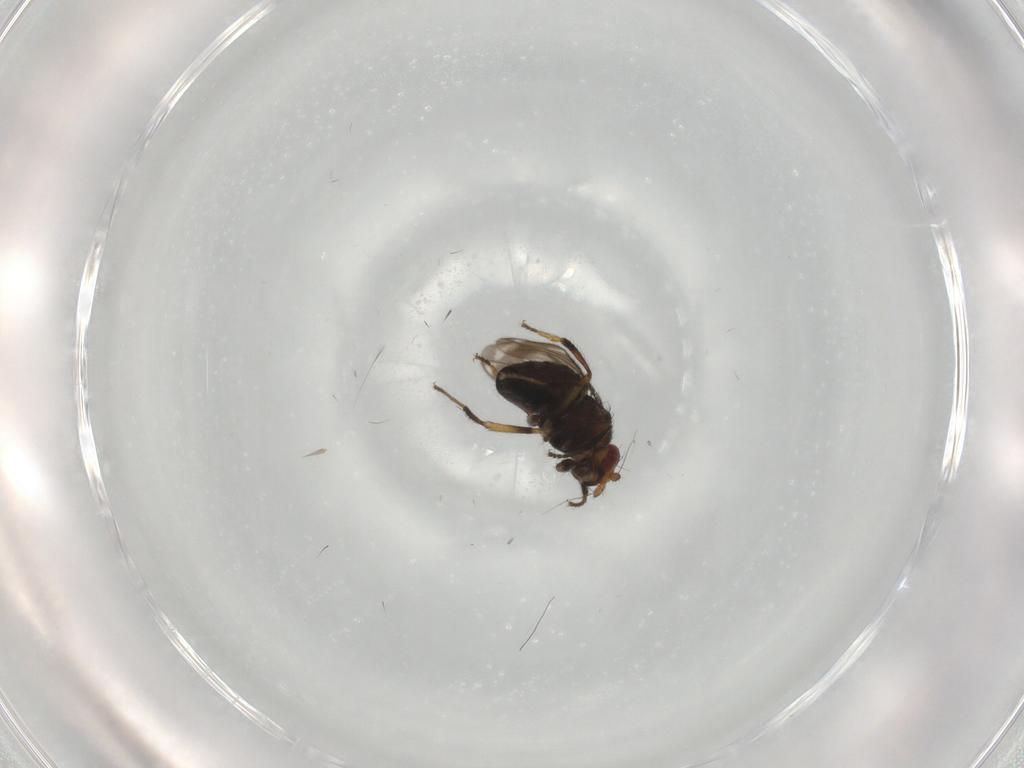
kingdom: Animalia
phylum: Arthropoda
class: Insecta
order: Diptera
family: Sphaeroceridae
